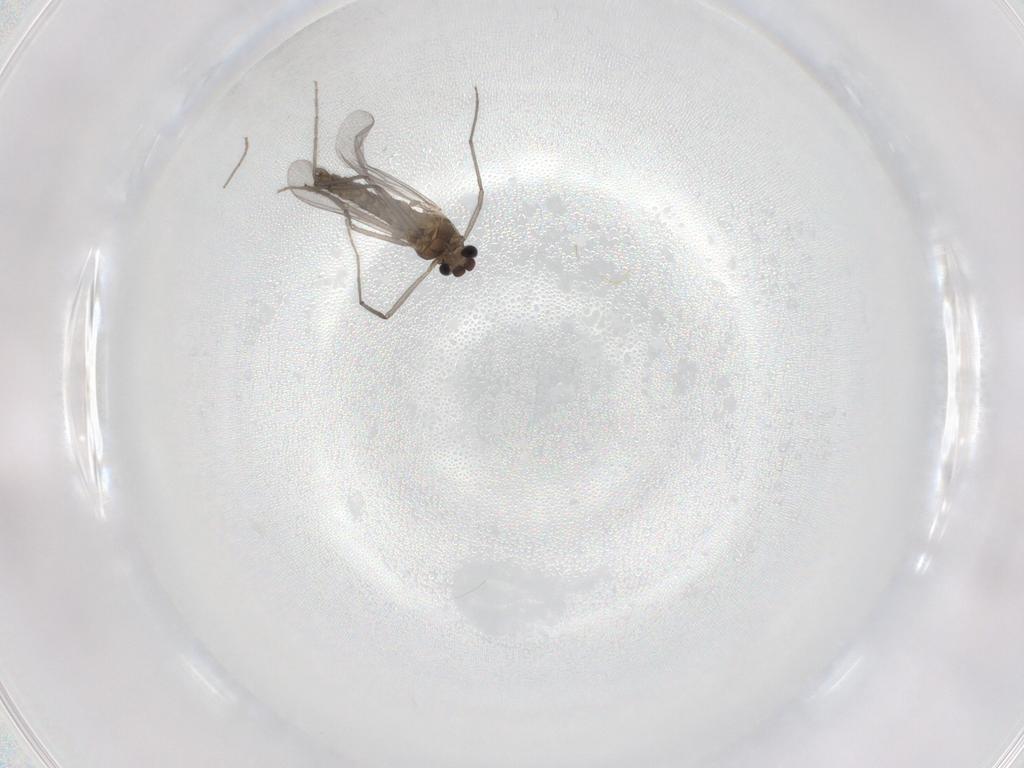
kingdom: Animalia
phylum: Arthropoda
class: Insecta
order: Diptera
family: Chironomidae
